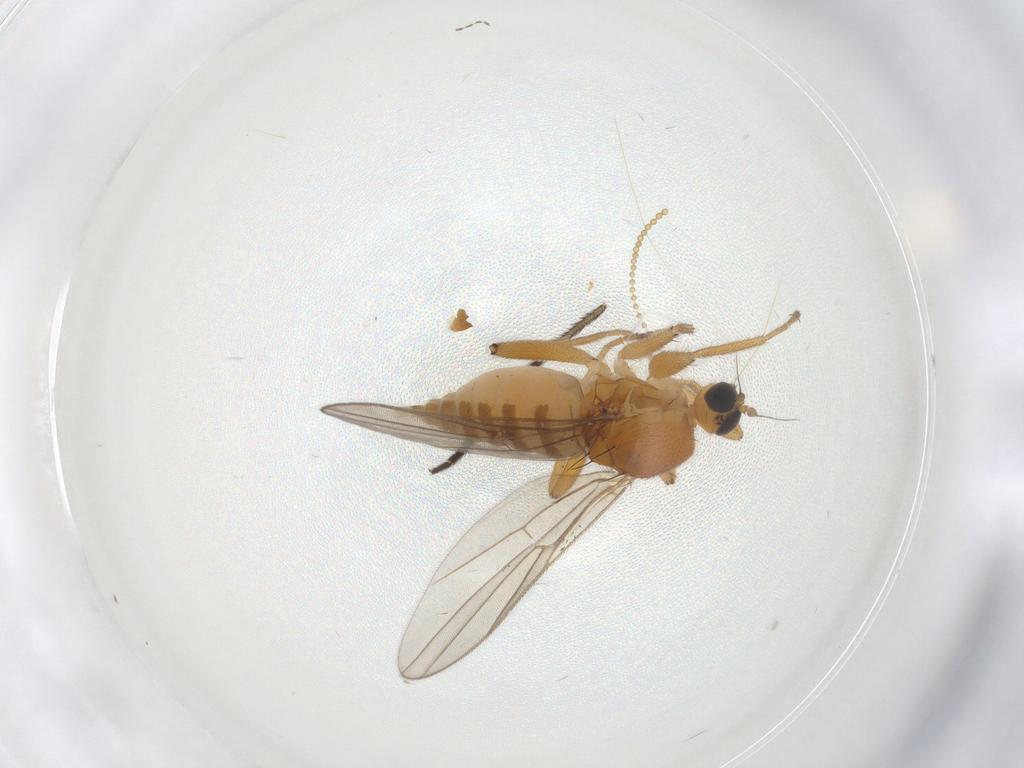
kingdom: Animalia
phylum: Arthropoda
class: Insecta
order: Diptera
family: Hybotidae
